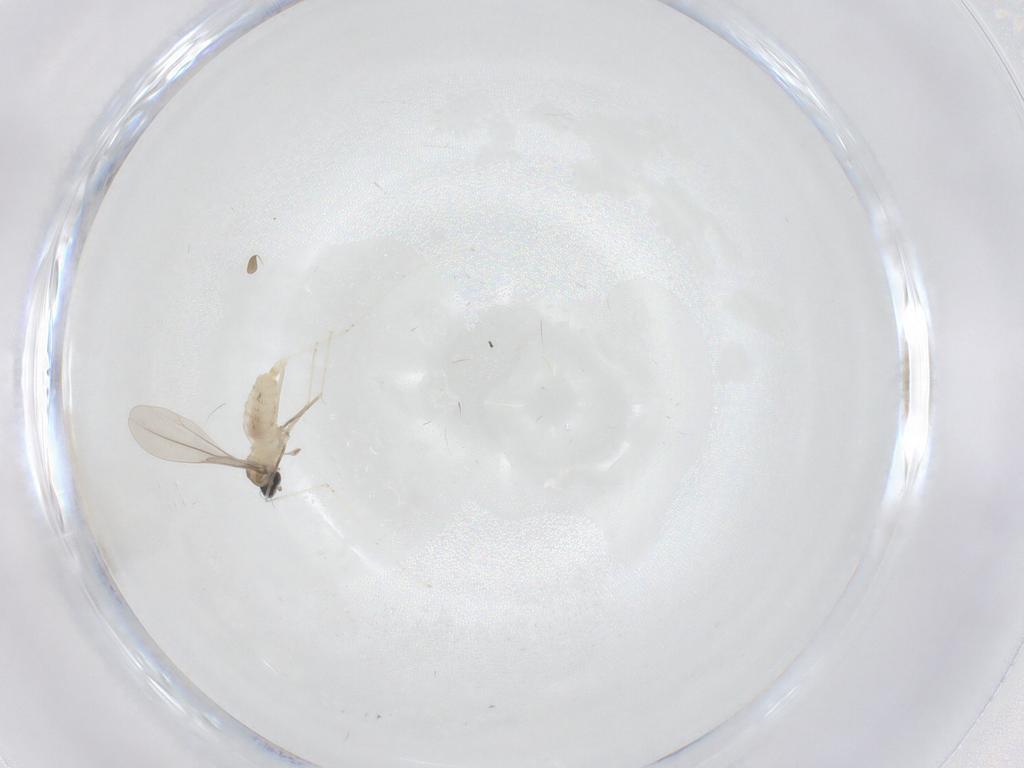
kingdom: Animalia
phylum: Arthropoda
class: Insecta
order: Diptera
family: Cecidomyiidae
